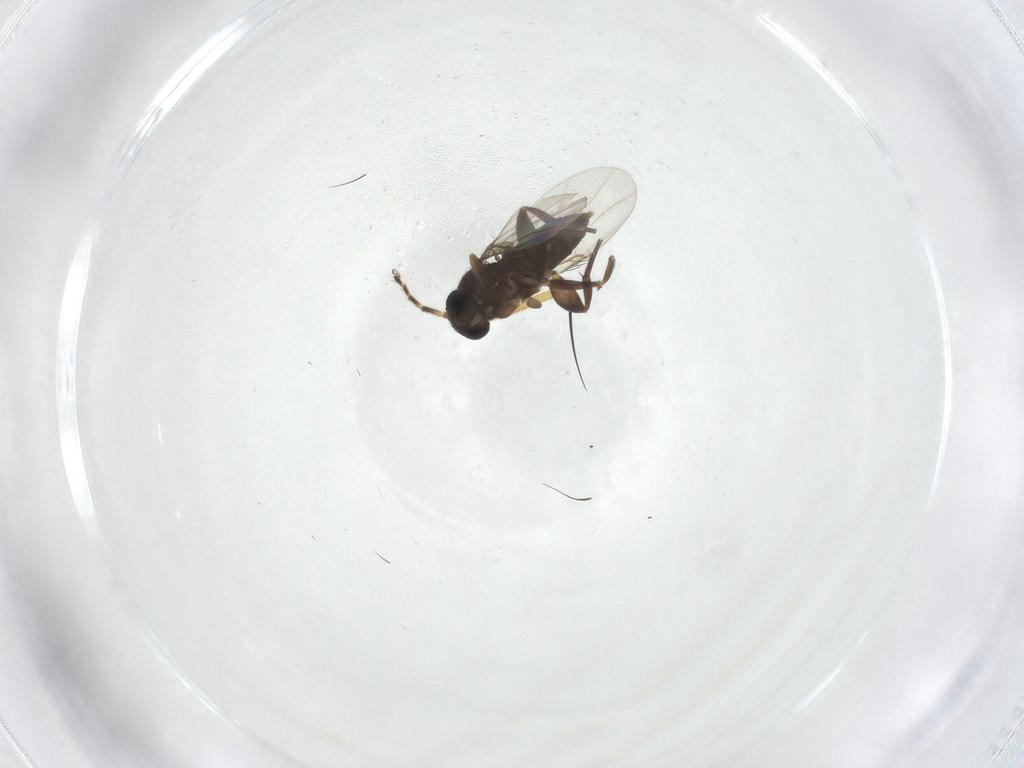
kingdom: Animalia
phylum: Arthropoda
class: Insecta
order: Diptera
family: Phoridae
